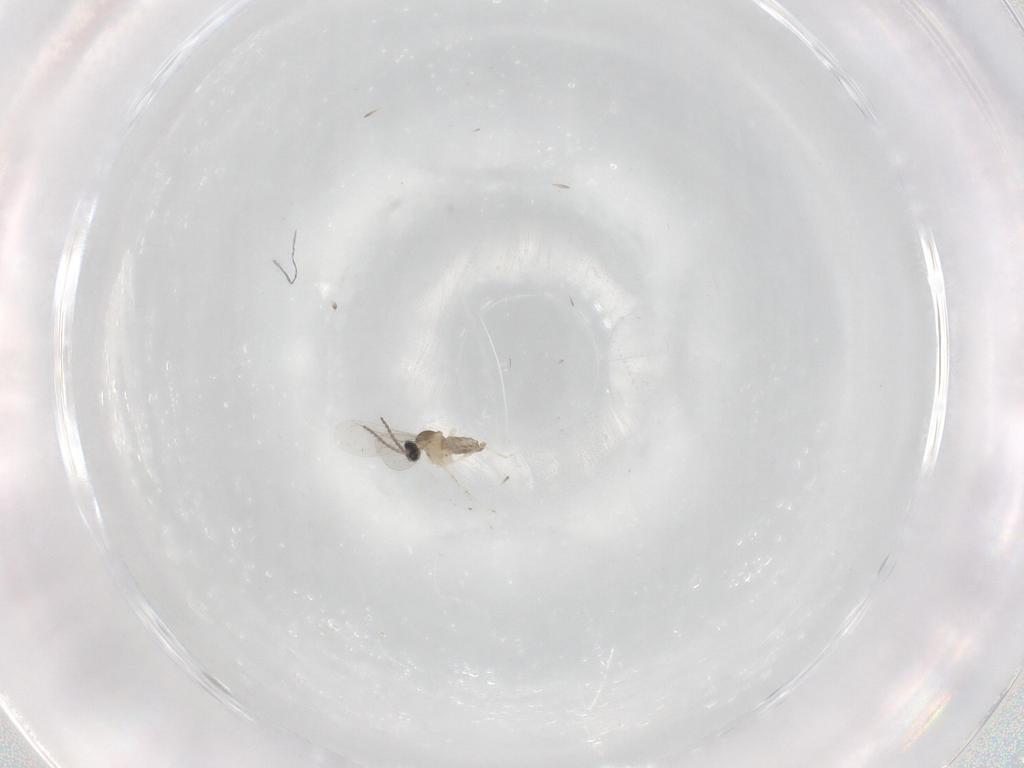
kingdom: Animalia
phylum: Arthropoda
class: Insecta
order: Diptera
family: Cecidomyiidae
